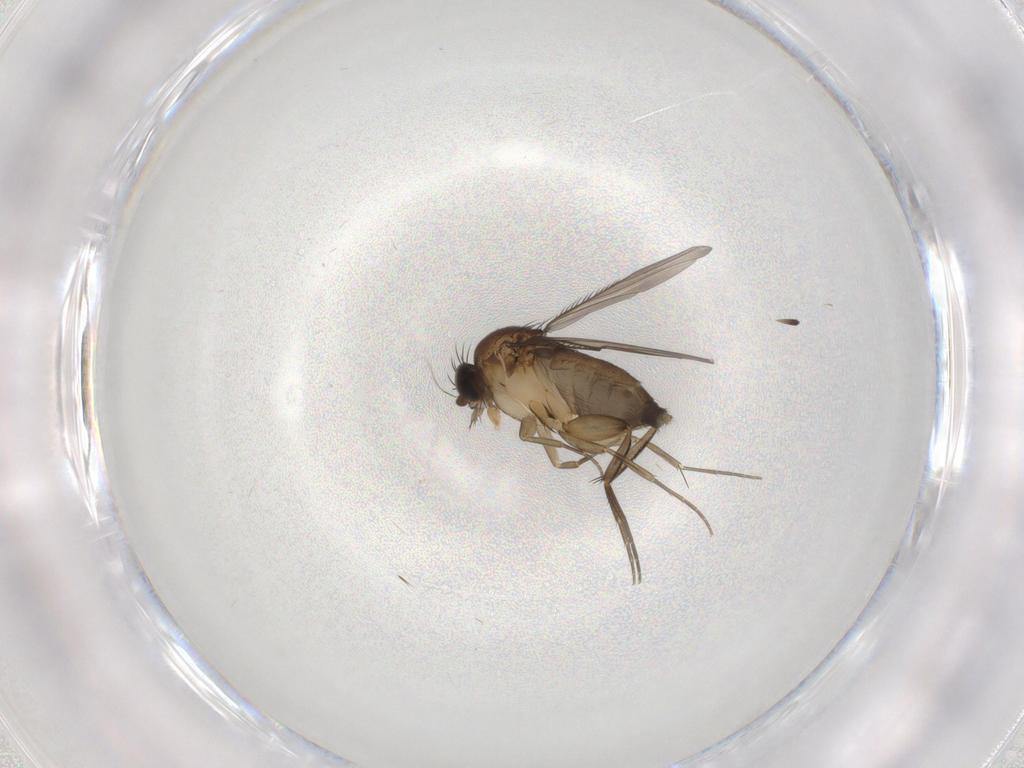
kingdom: Animalia
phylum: Arthropoda
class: Insecta
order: Diptera
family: Phoridae
